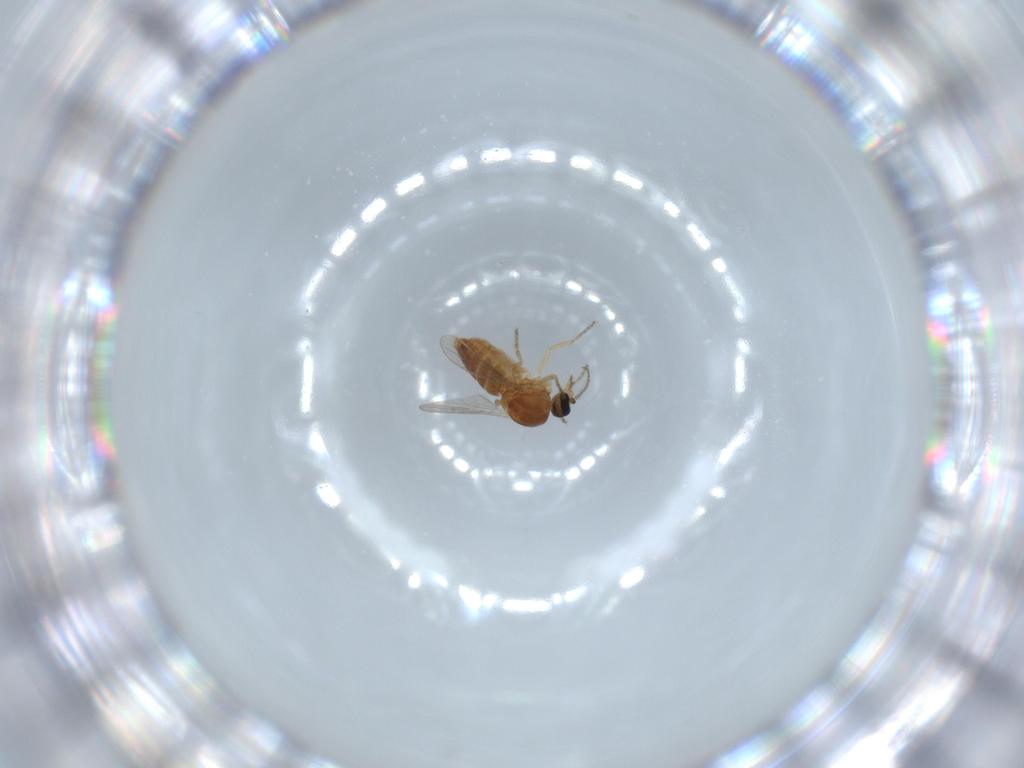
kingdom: Animalia
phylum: Arthropoda
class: Insecta
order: Diptera
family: Ceratopogonidae
